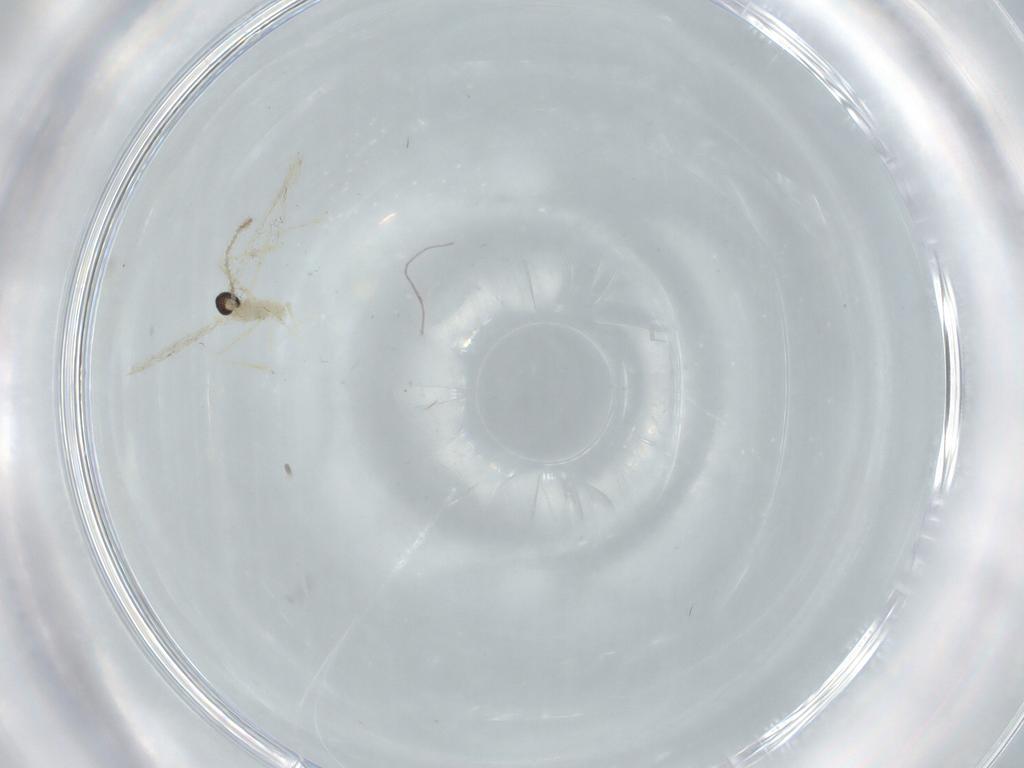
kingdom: Animalia
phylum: Arthropoda
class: Insecta
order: Diptera
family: Cecidomyiidae
